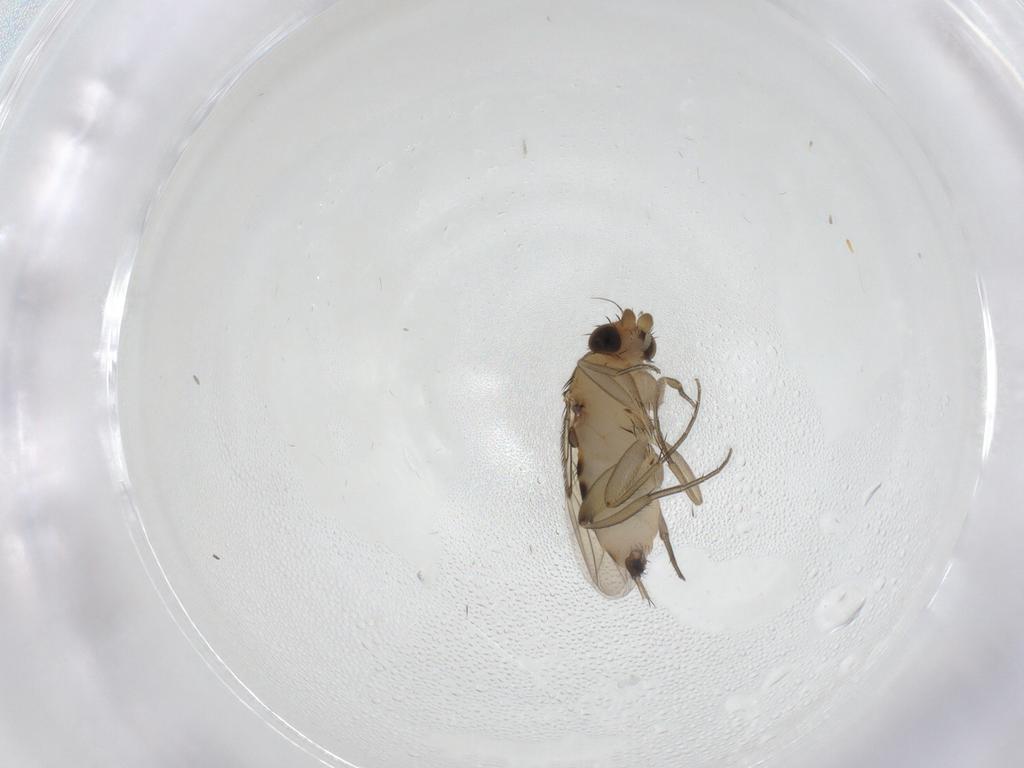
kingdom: Animalia
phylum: Arthropoda
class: Insecta
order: Diptera
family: Phoridae
